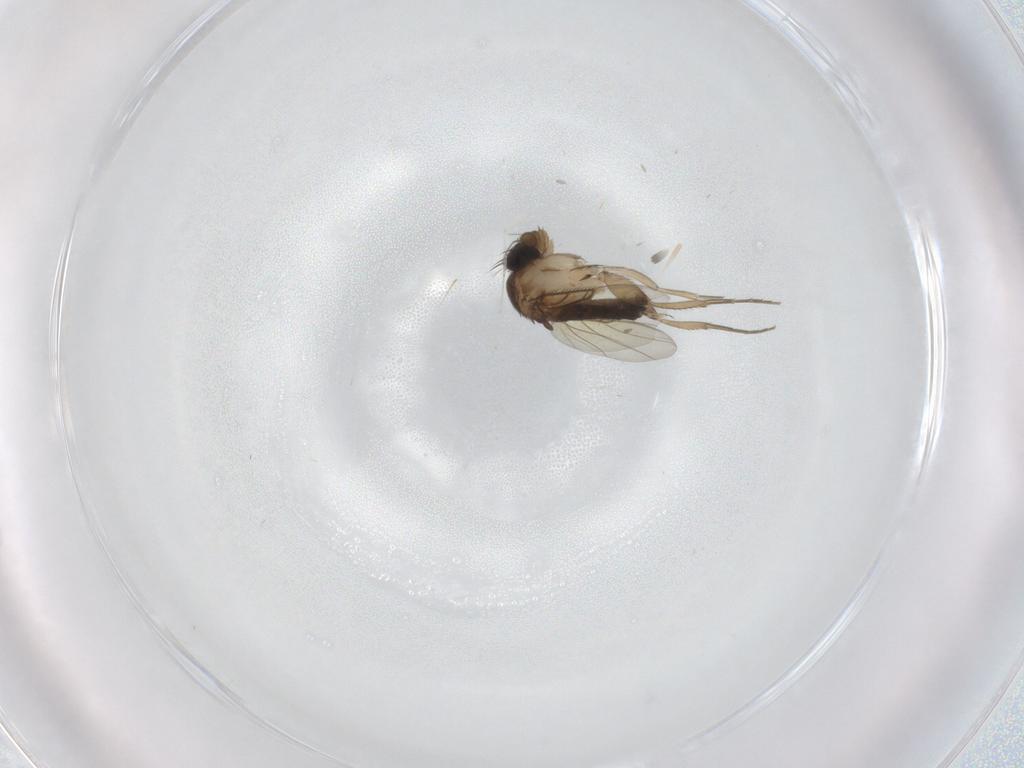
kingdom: Animalia
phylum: Arthropoda
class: Insecta
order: Diptera
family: Phoridae
